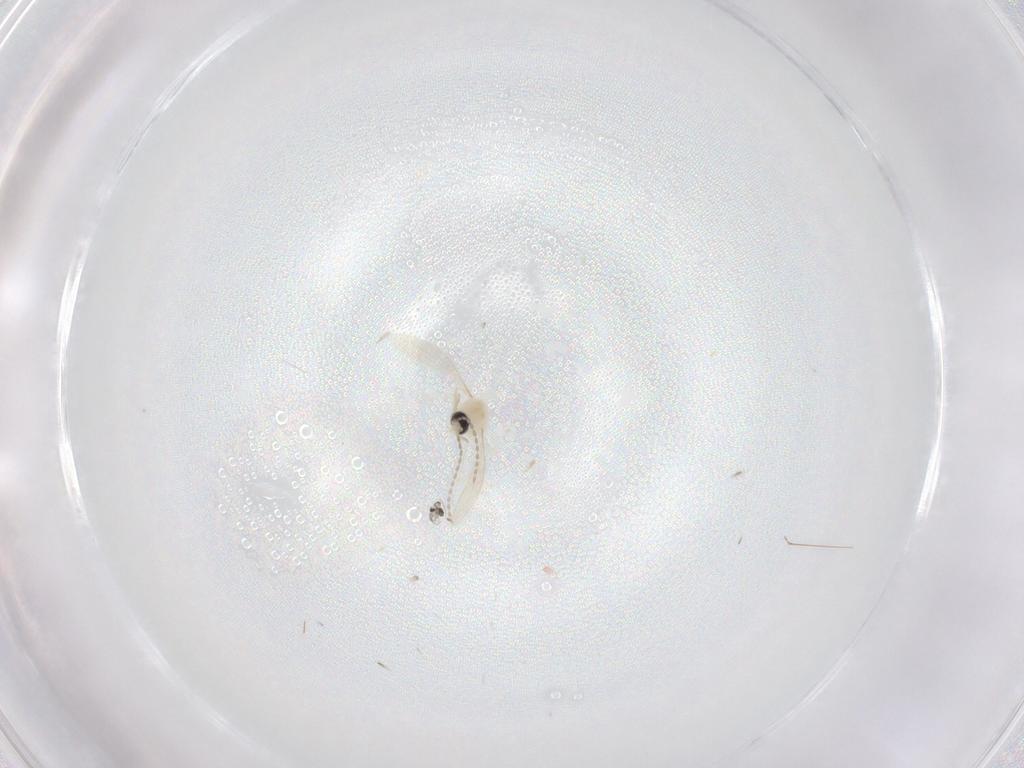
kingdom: Animalia
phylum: Arthropoda
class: Insecta
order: Diptera
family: Cecidomyiidae
